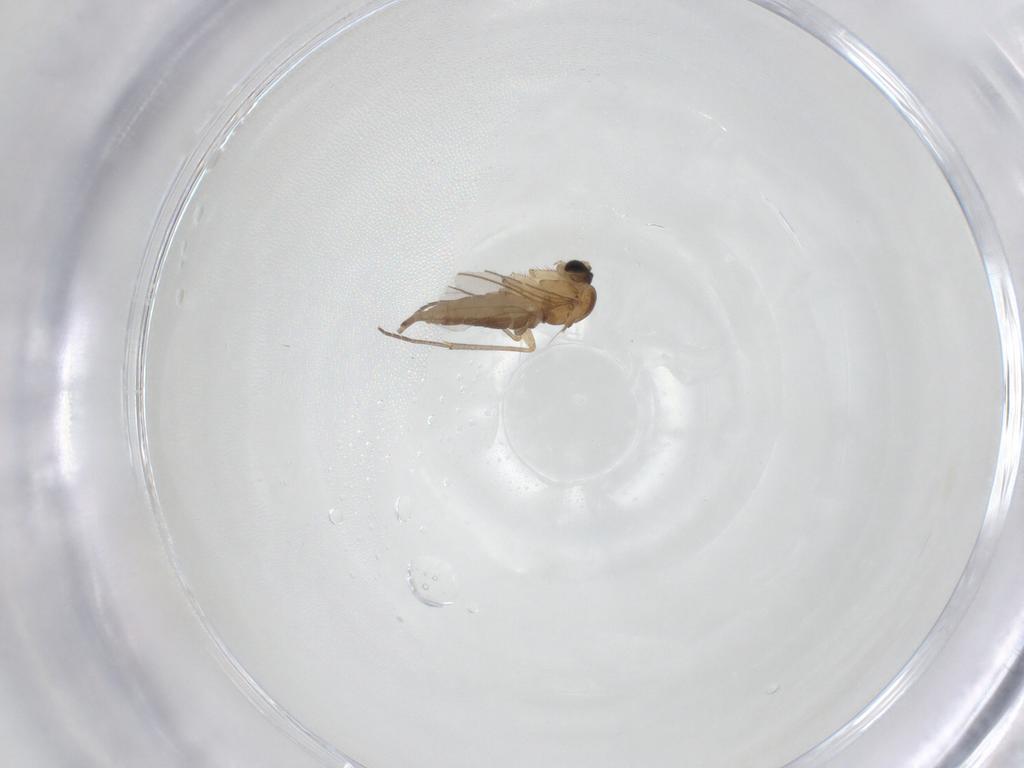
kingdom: Animalia
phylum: Arthropoda
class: Insecta
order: Diptera
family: Sciaridae
